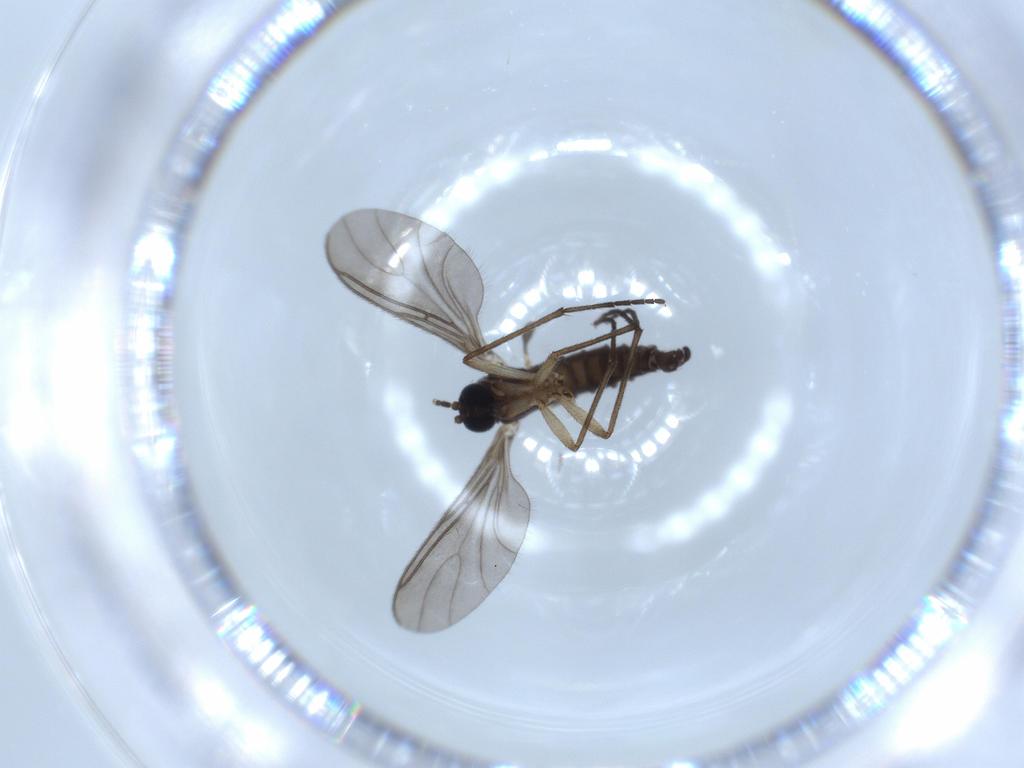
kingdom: Animalia
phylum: Arthropoda
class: Insecta
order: Diptera
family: Sciaridae
